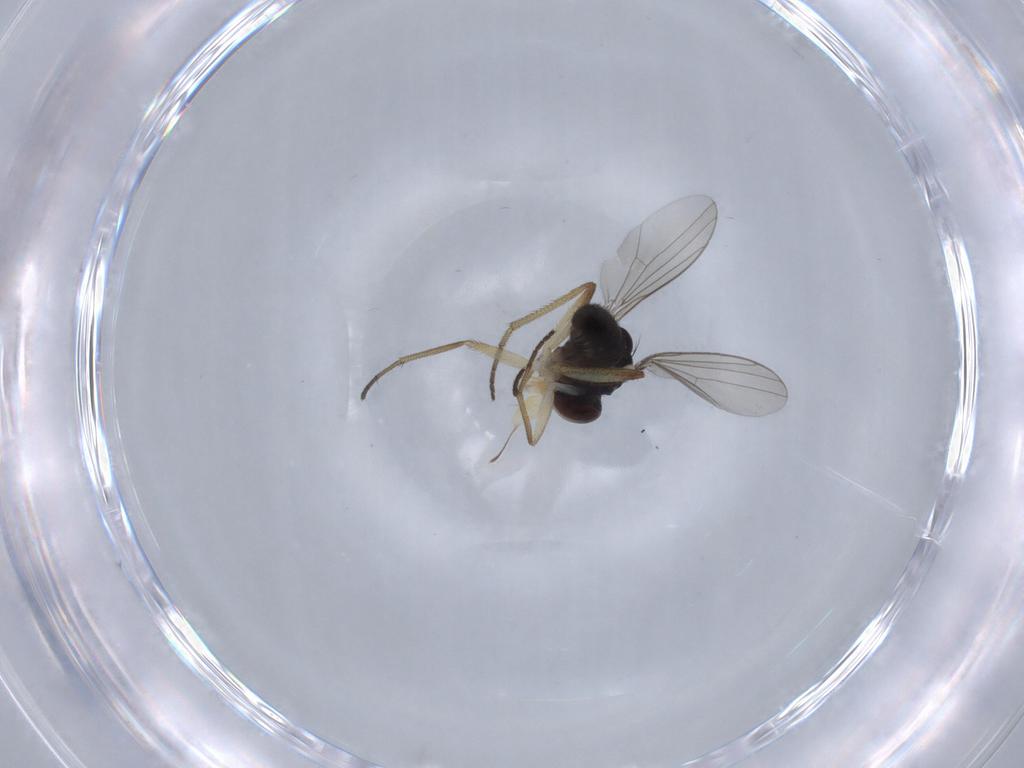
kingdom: Animalia
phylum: Arthropoda
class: Insecta
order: Diptera
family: Dolichopodidae
